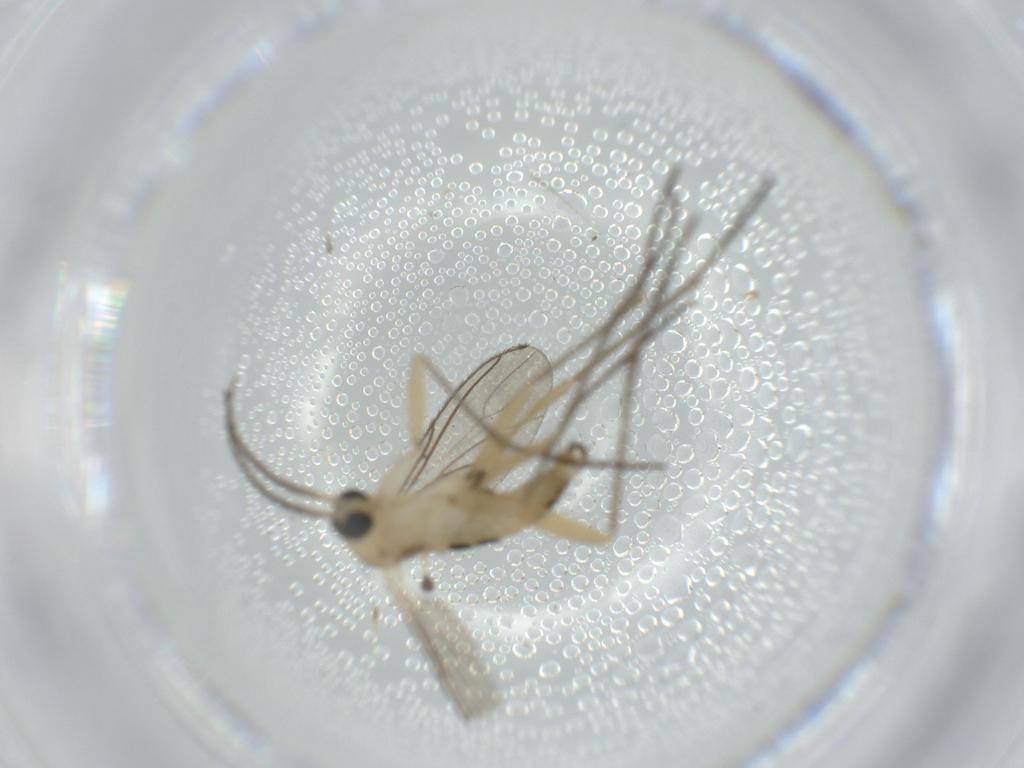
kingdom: Animalia
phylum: Arthropoda
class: Insecta
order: Diptera
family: Sciaridae
